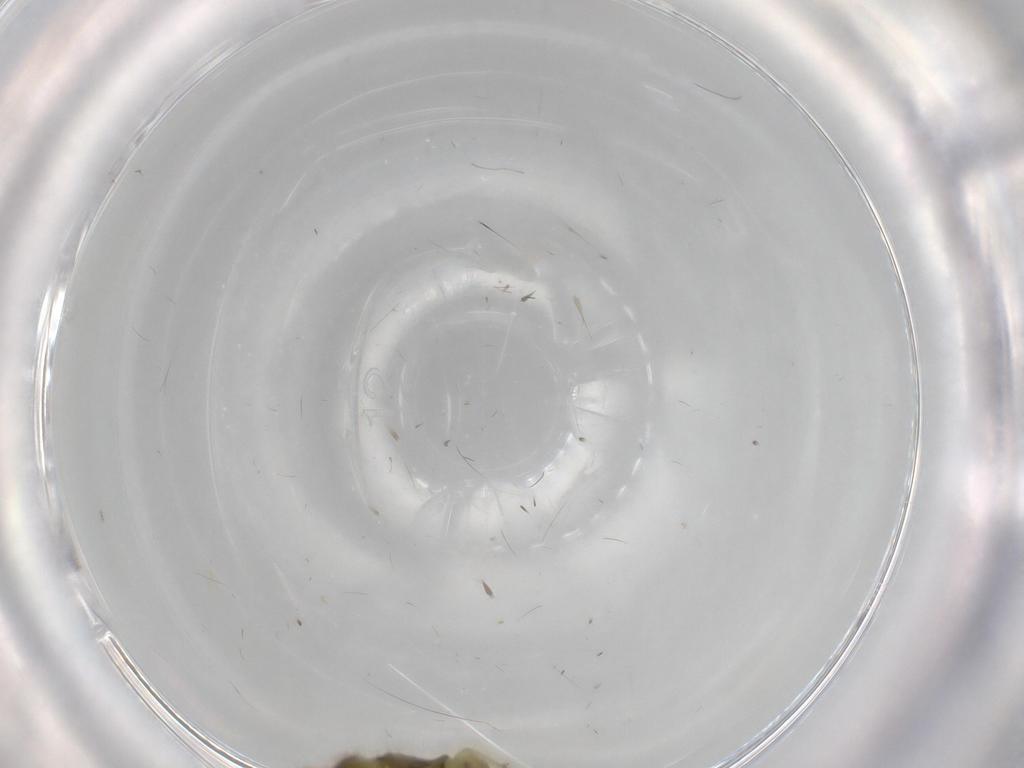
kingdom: Animalia
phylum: Arthropoda
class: Insecta
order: Hemiptera
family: Cicadellidae
